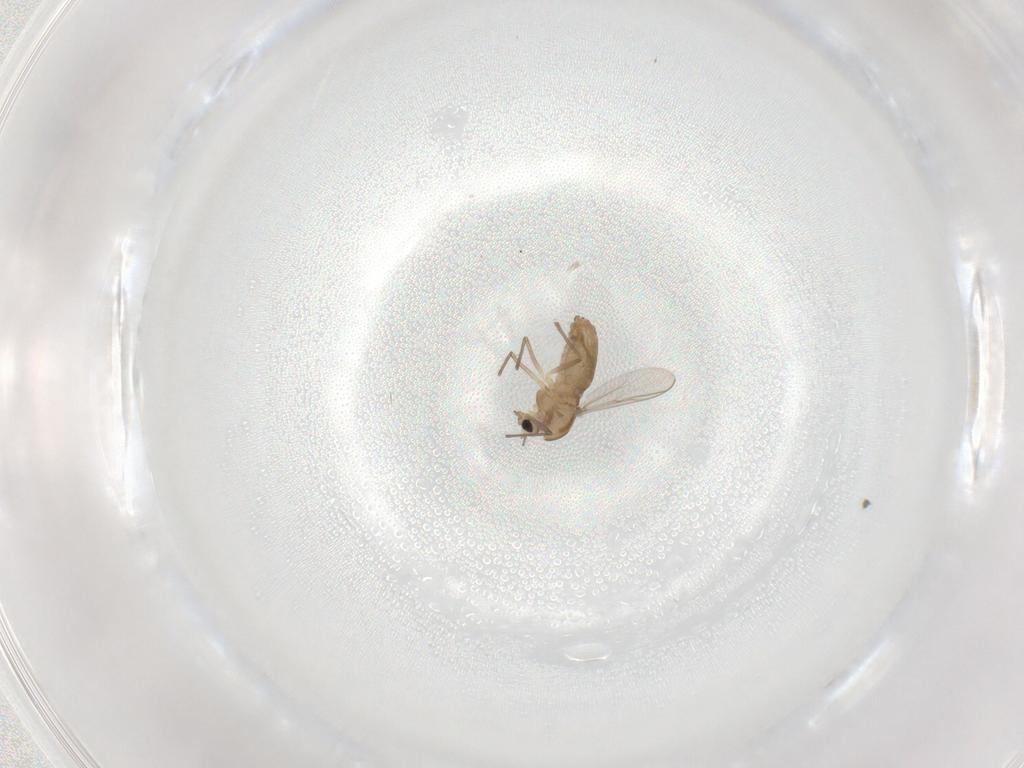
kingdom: Animalia
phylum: Arthropoda
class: Insecta
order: Diptera
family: Chironomidae
